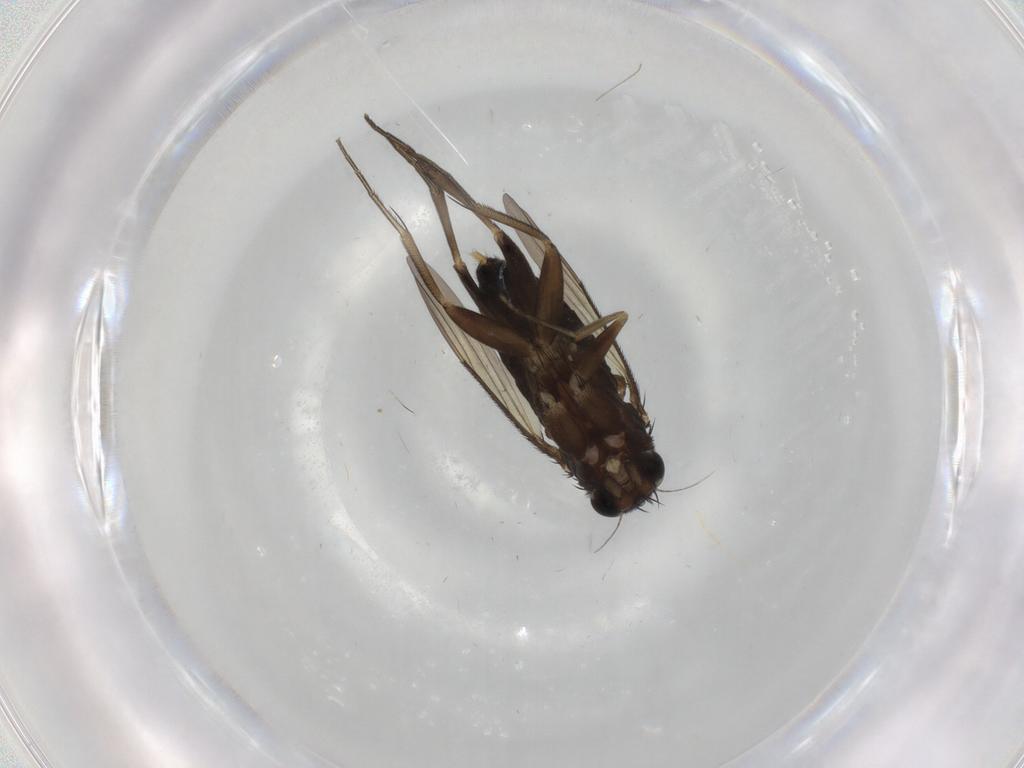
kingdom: Animalia
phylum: Arthropoda
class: Insecta
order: Diptera
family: Phoridae
